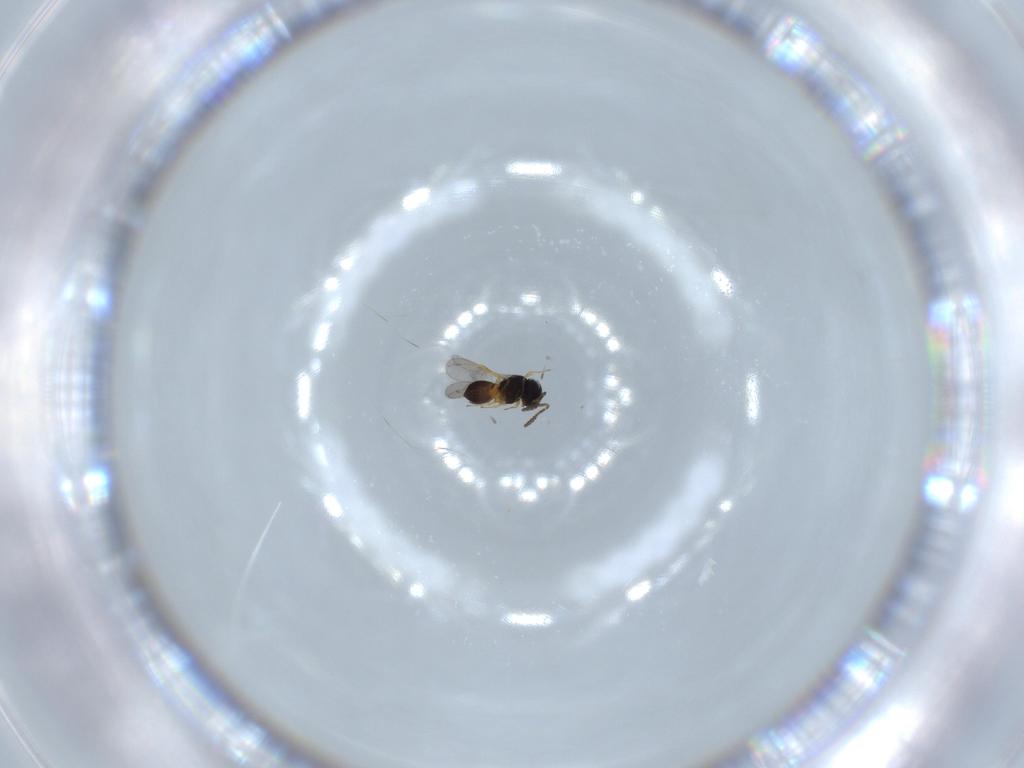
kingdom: Animalia
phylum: Arthropoda
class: Insecta
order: Hymenoptera
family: Scelionidae
